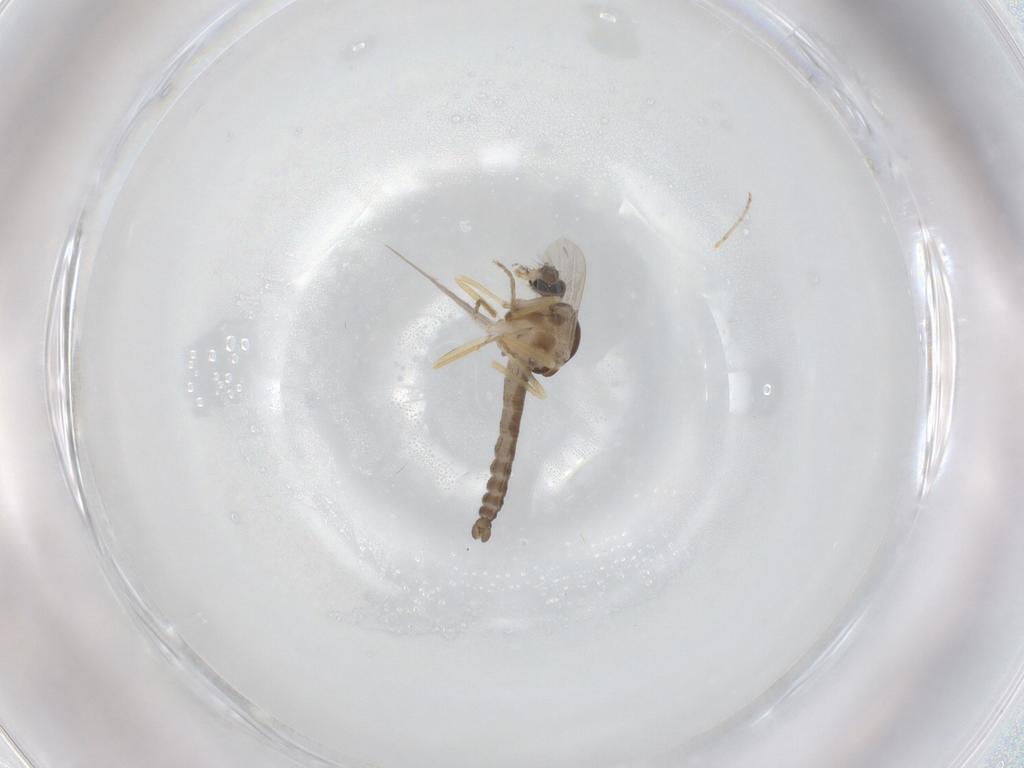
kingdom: Animalia
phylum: Arthropoda
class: Insecta
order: Diptera
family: Ceratopogonidae
